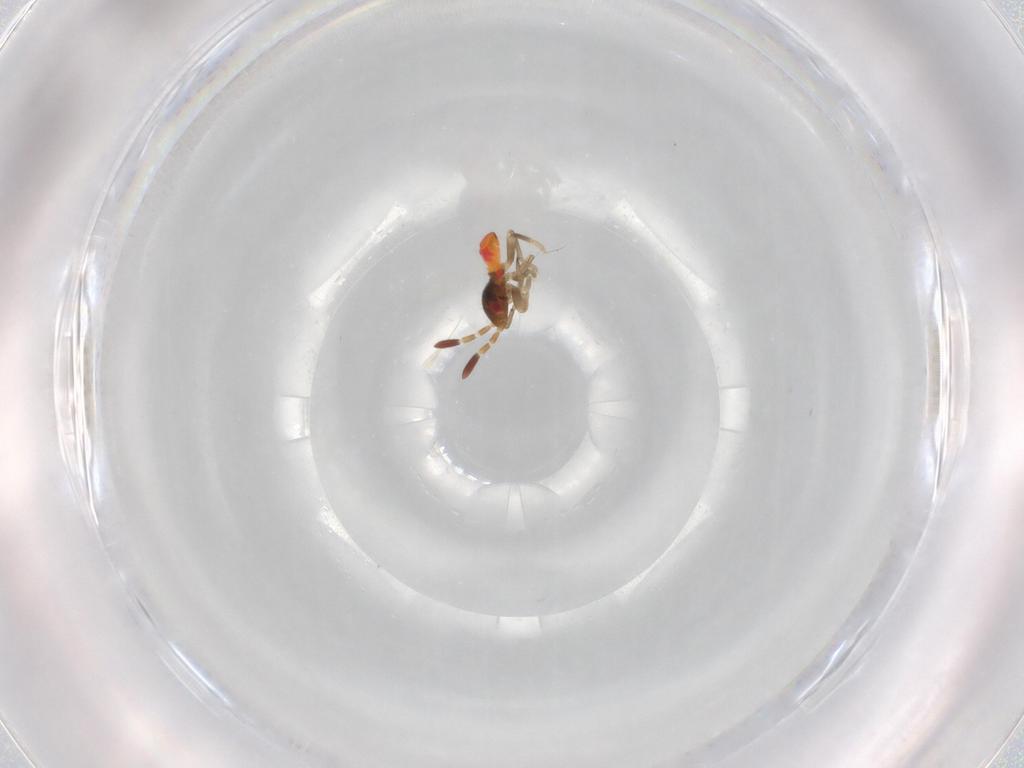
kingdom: Animalia
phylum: Arthropoda
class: Insecta
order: Hemiptera
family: Rhyparochromidae
